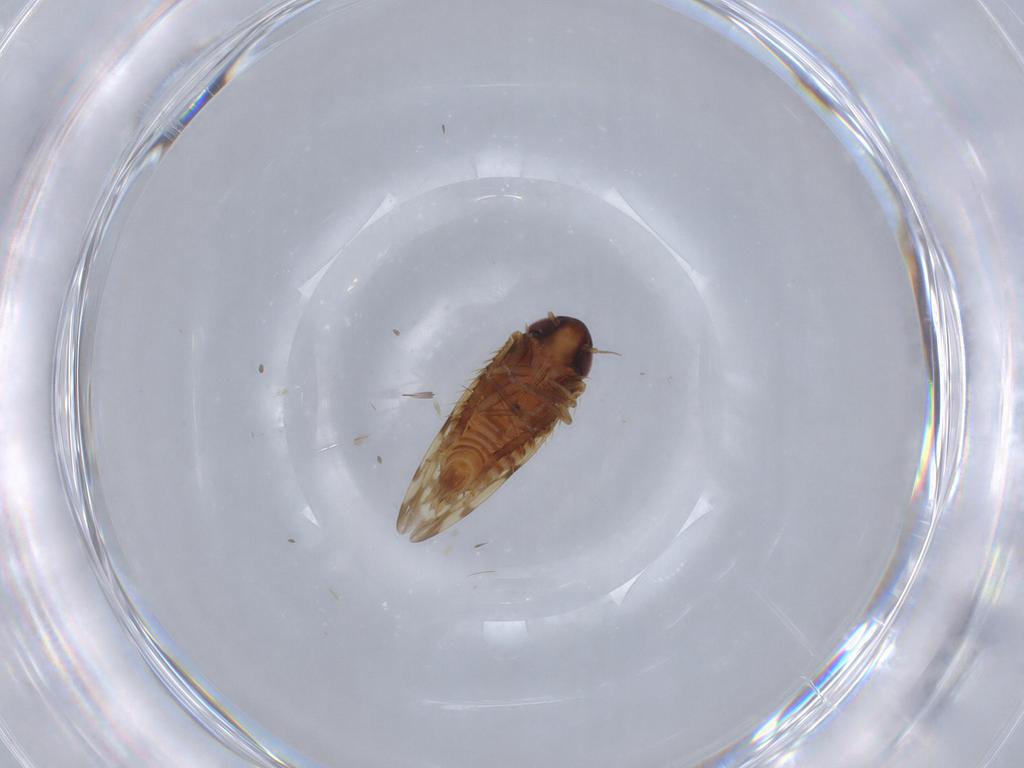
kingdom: Animalia
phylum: Arthropoda
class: Insecta
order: Hemiptera
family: Cicadellidae
